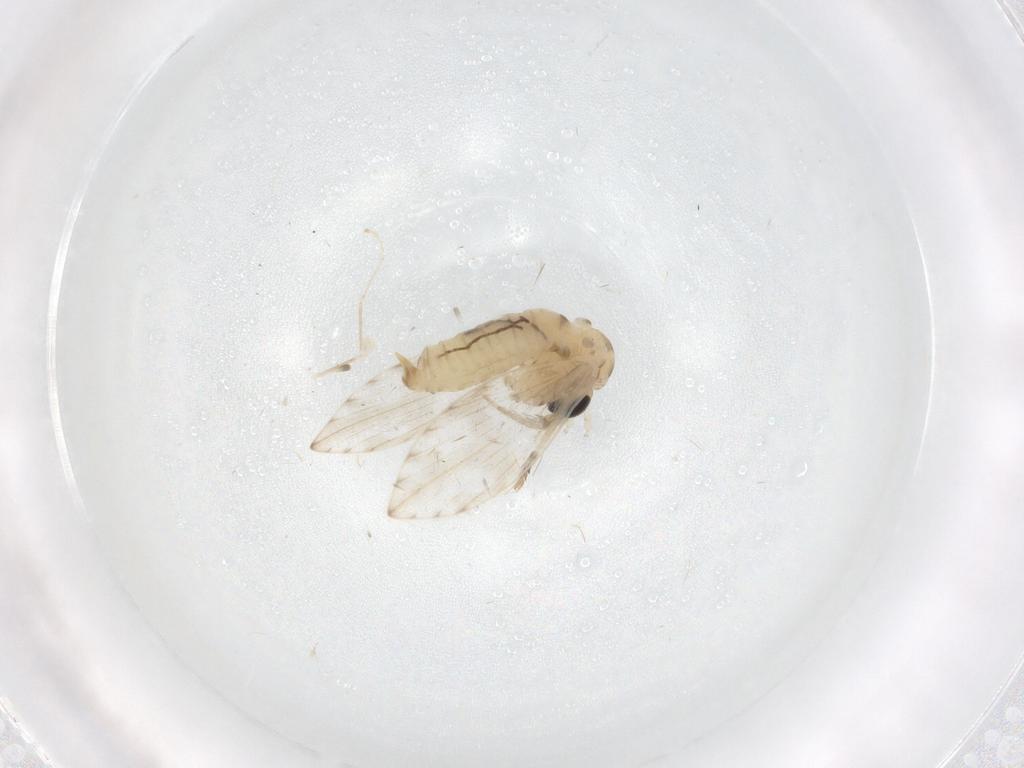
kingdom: Animalia
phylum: Arthropoda
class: Insecta
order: Diptera
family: Psychodidae
